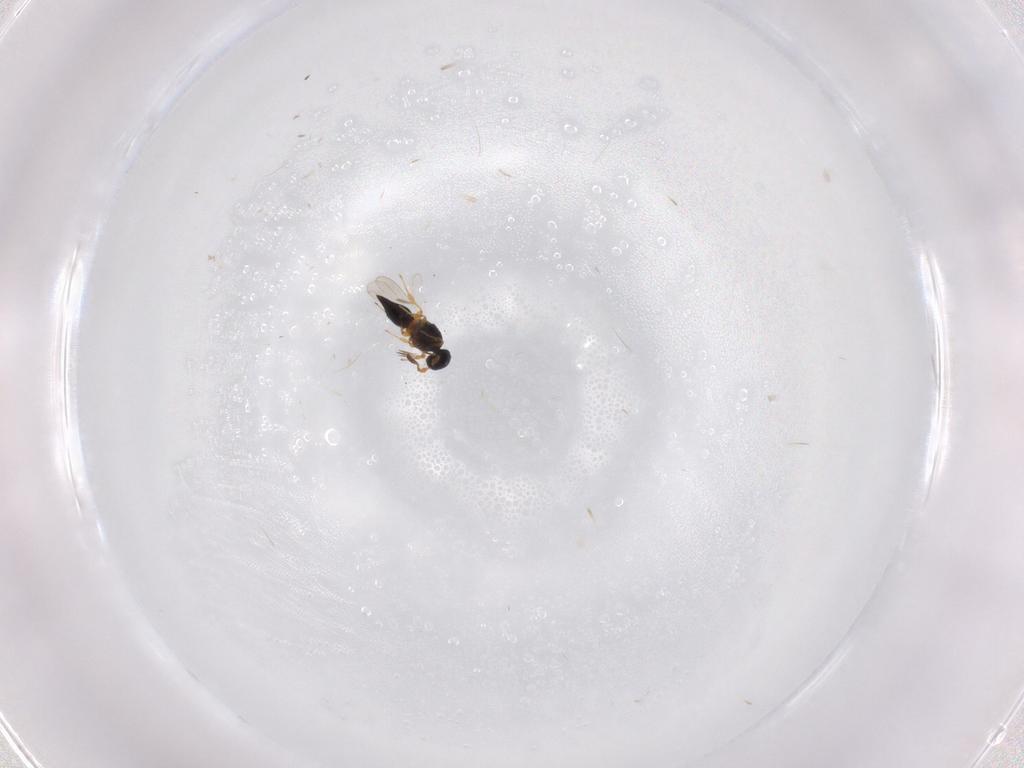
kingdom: Animalia
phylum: Arthropoda
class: Insecta
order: Hymenoptera
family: Platygastridae
